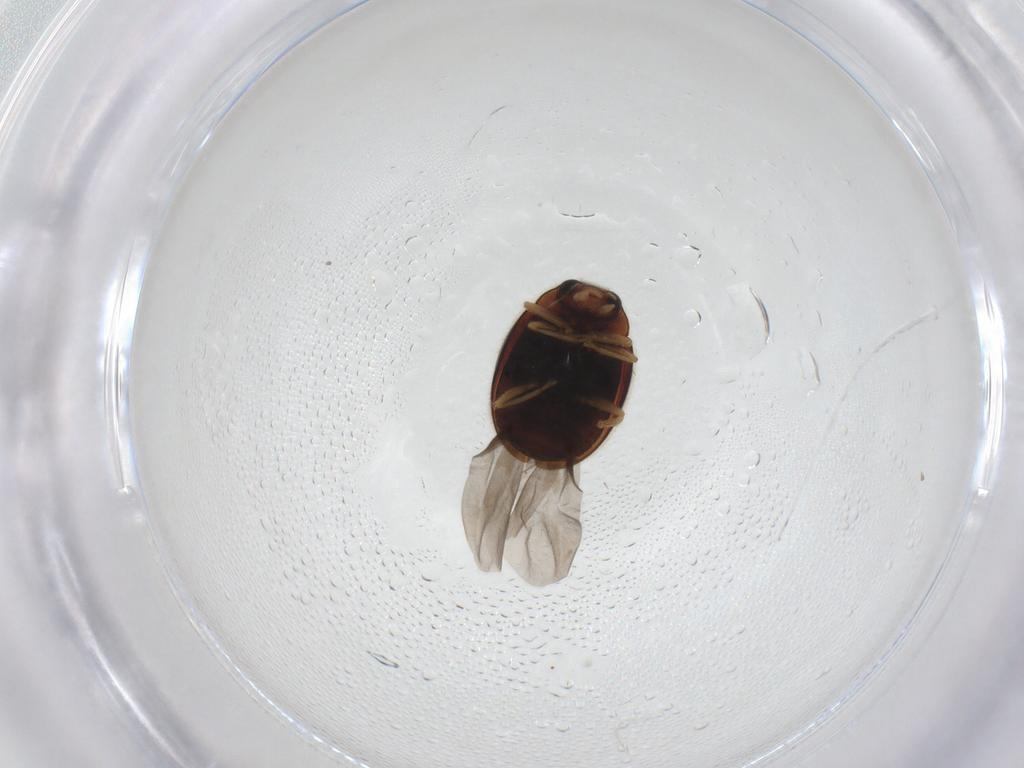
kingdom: Animalia
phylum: Arthropoda
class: Insecta
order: Coleoptera
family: Coccinellidae
